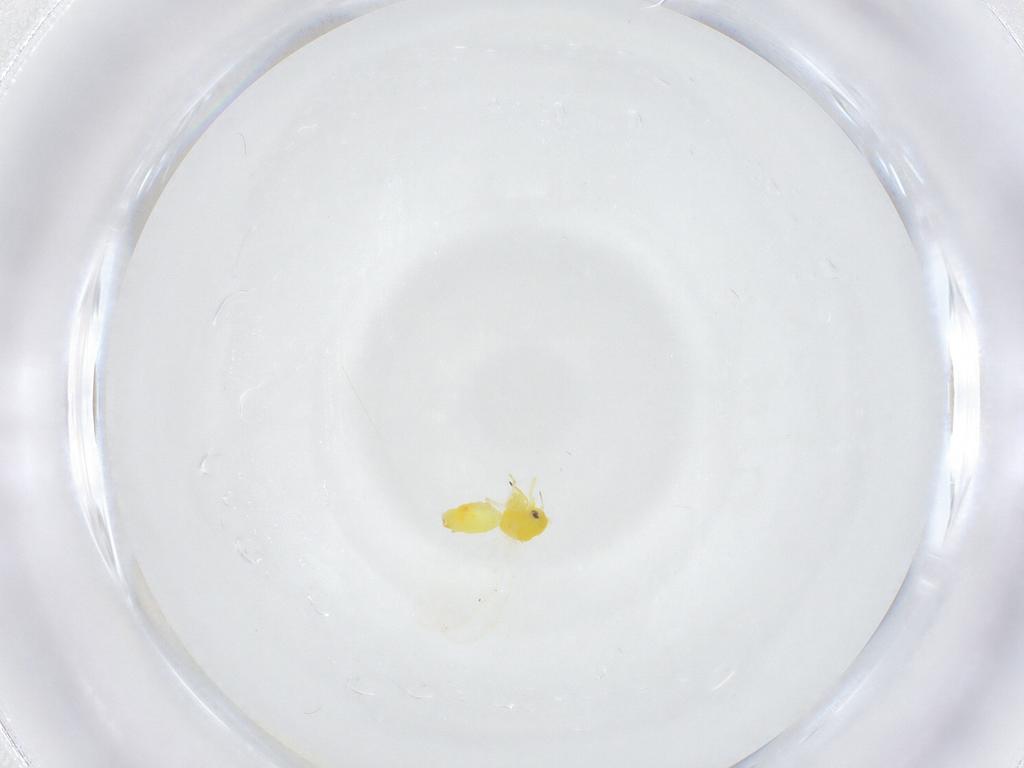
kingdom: Animalia
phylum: Arthropoda
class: Insecta
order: Hemiptera
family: Aleyrodidae
